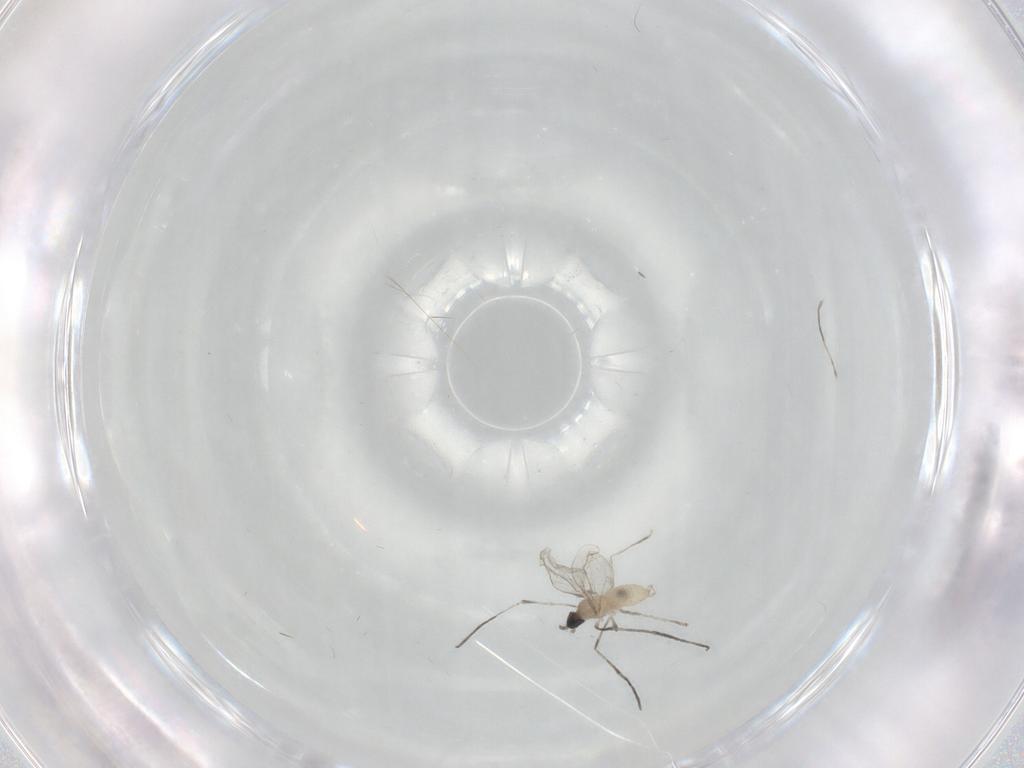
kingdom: Animalia
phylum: Arthropoda
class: Insecta
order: Diptera
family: Cecidomyiidae
